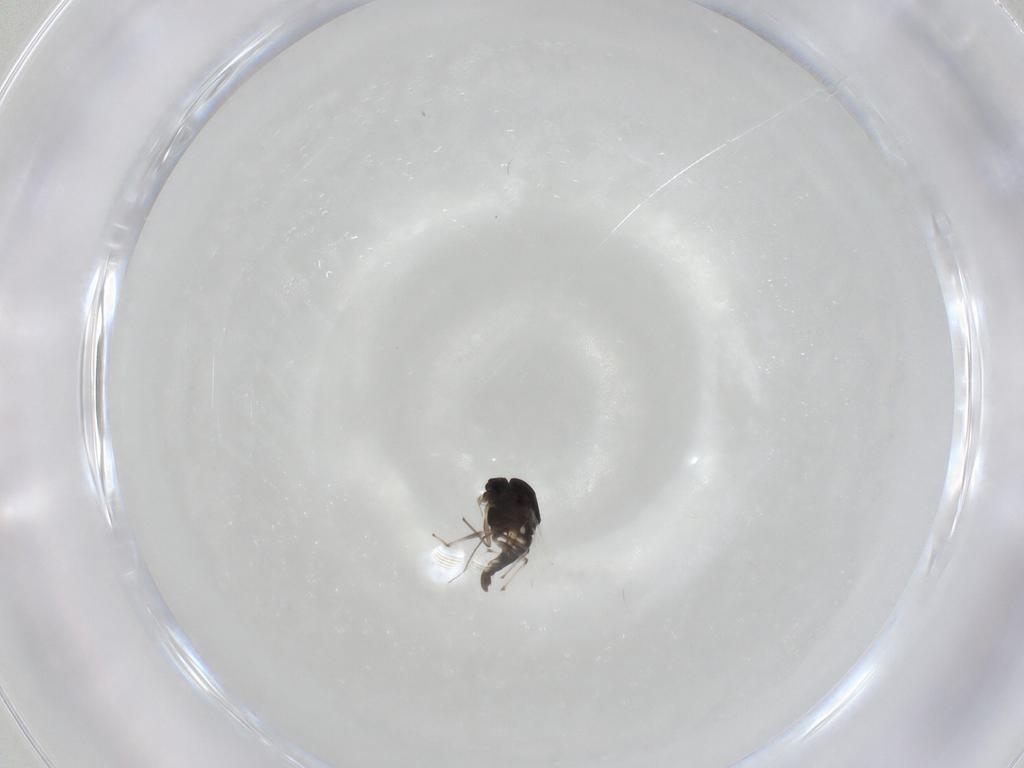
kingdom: Animalia
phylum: Arthropoda
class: Insecta
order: Diptera
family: Chironomidae
